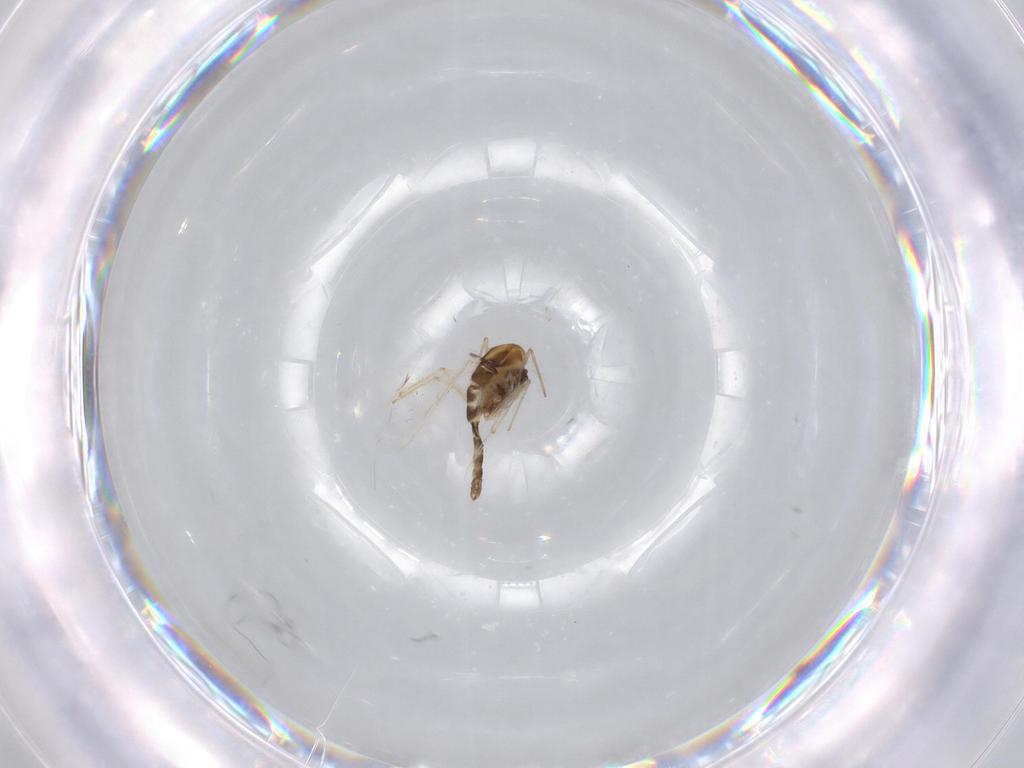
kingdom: Animalia
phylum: Arthropoda
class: Insecta
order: Diptera
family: Chironomidae
